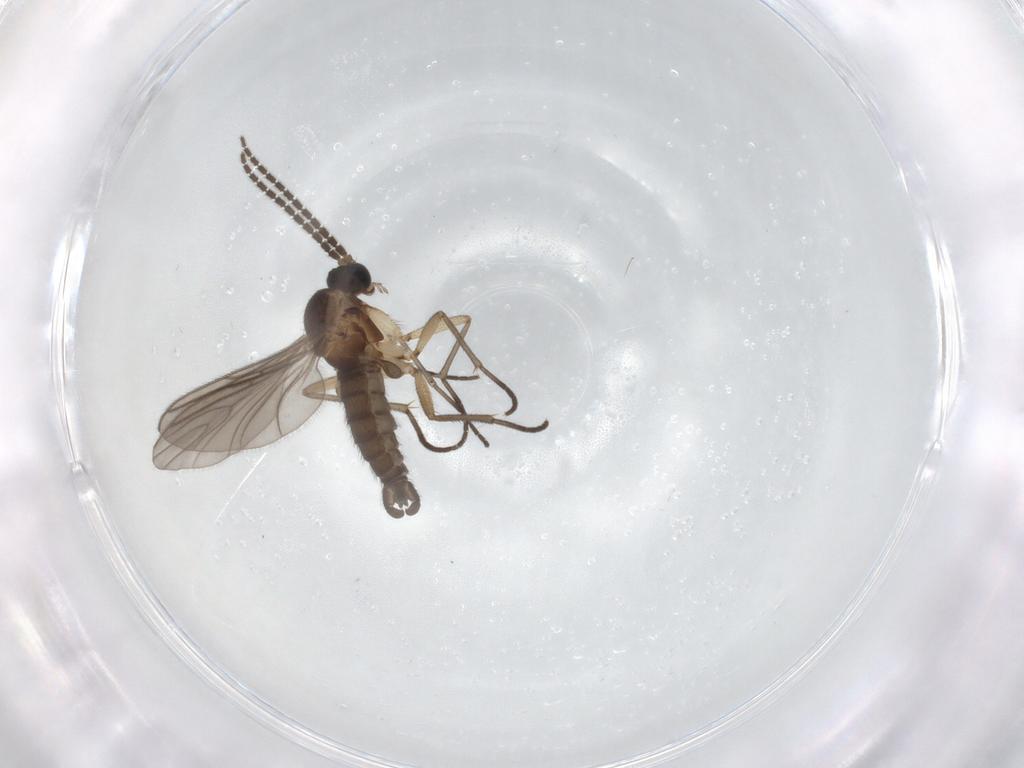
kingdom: Animalia
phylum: Arthropoda
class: Insecta
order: Diptera
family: Sciaridae
